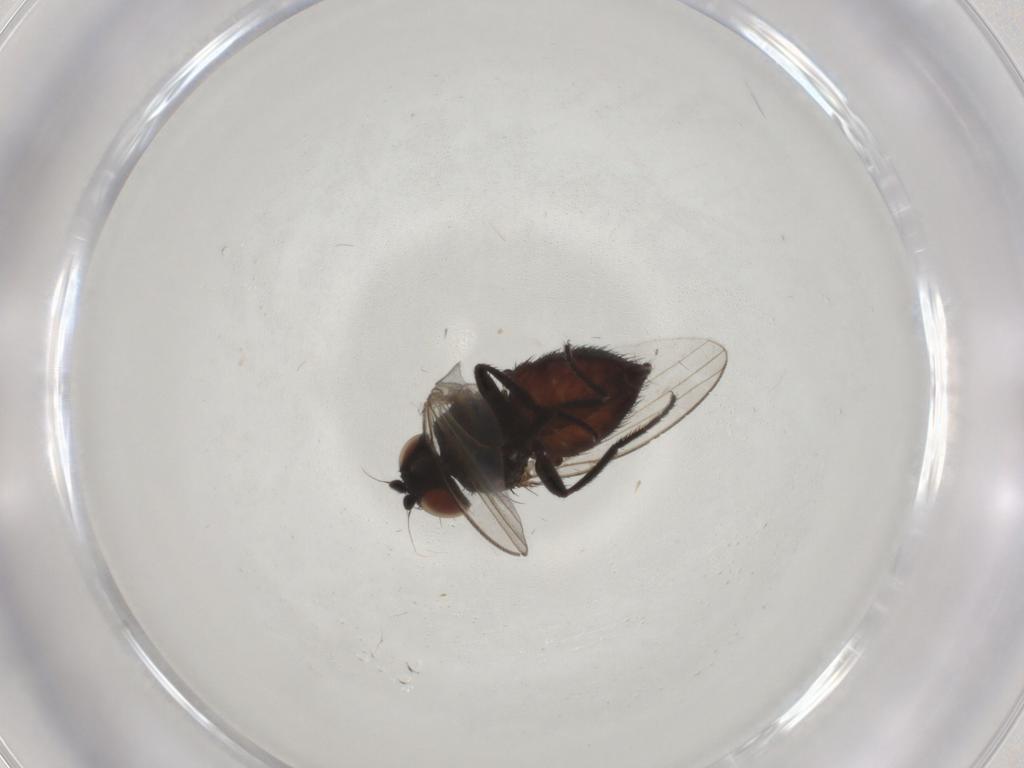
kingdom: Animalia
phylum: Arthropoda
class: Insecta
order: Diptera
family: Milichiidae
